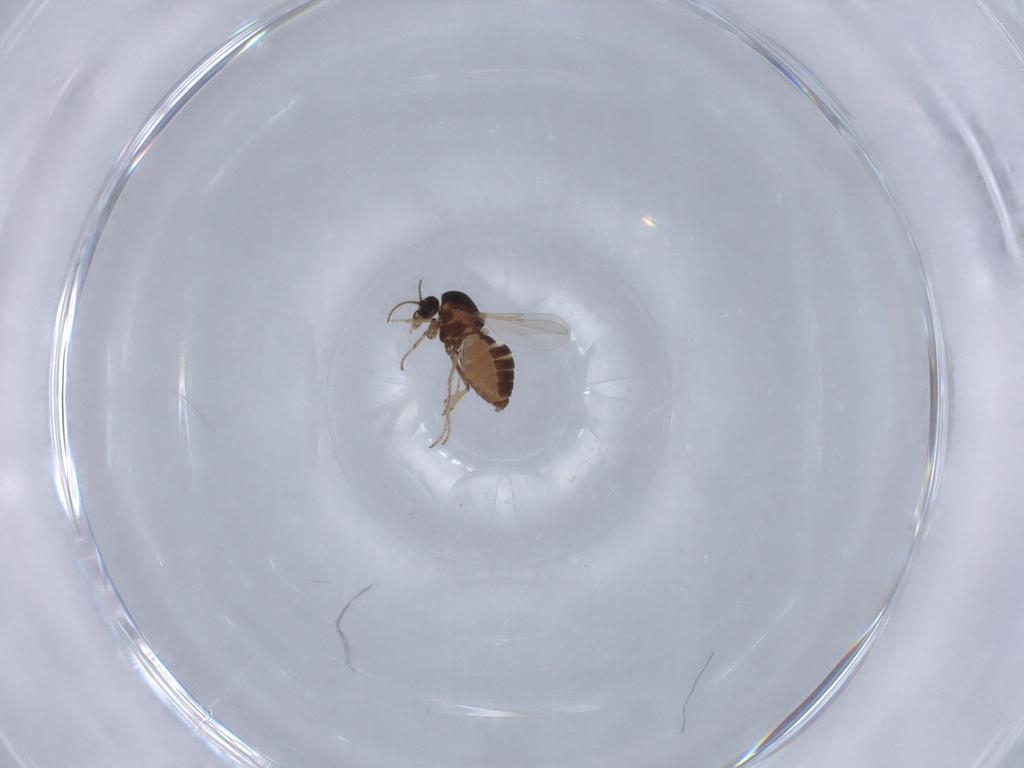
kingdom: Animalia
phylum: Arthropoda
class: Insecta
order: Diptera
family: Ceratopogonidae
